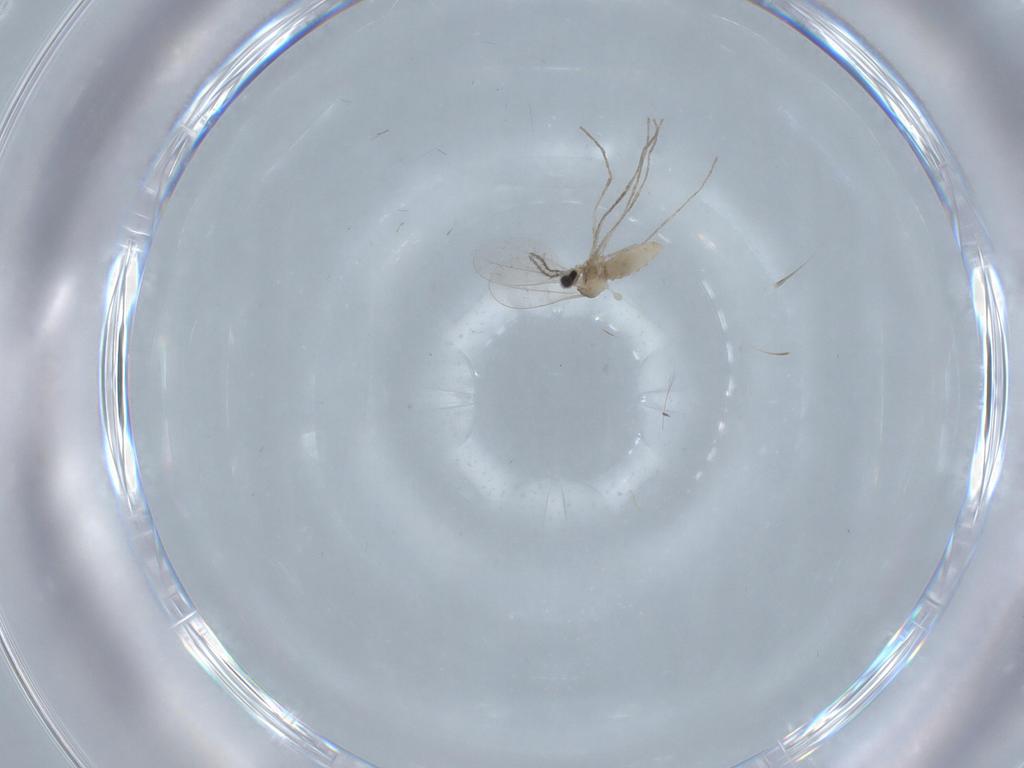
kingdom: Animalia
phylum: Arthropoda
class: Insecta
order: Diptera
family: Cecidomyiidae
